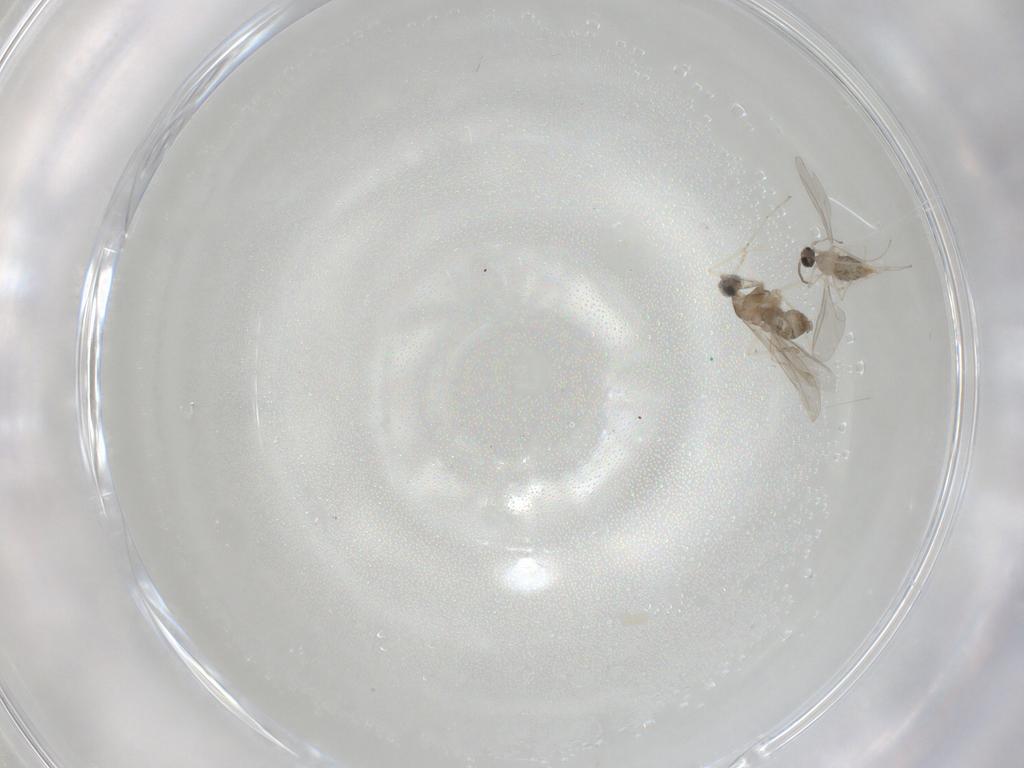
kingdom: Animalia
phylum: Arthropoda
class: Insecta
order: Diptera
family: Cecidomyiidae
